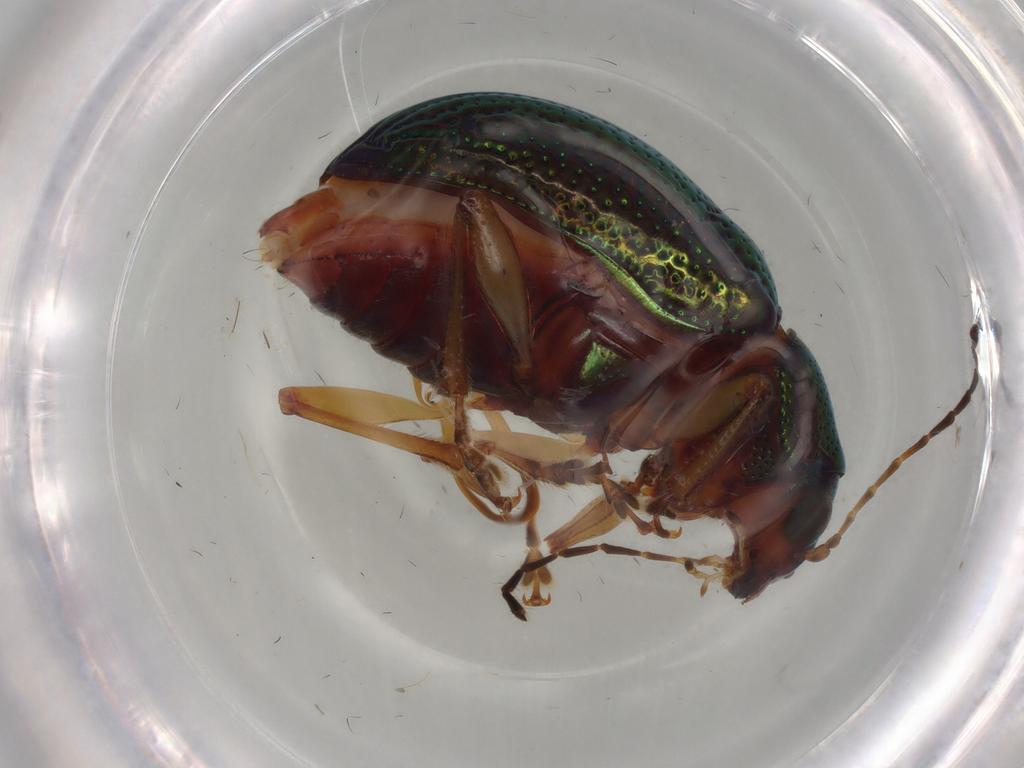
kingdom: Animalia
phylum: Arthropoda
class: Insecta
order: Coleoptera
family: Chrysomelidae
